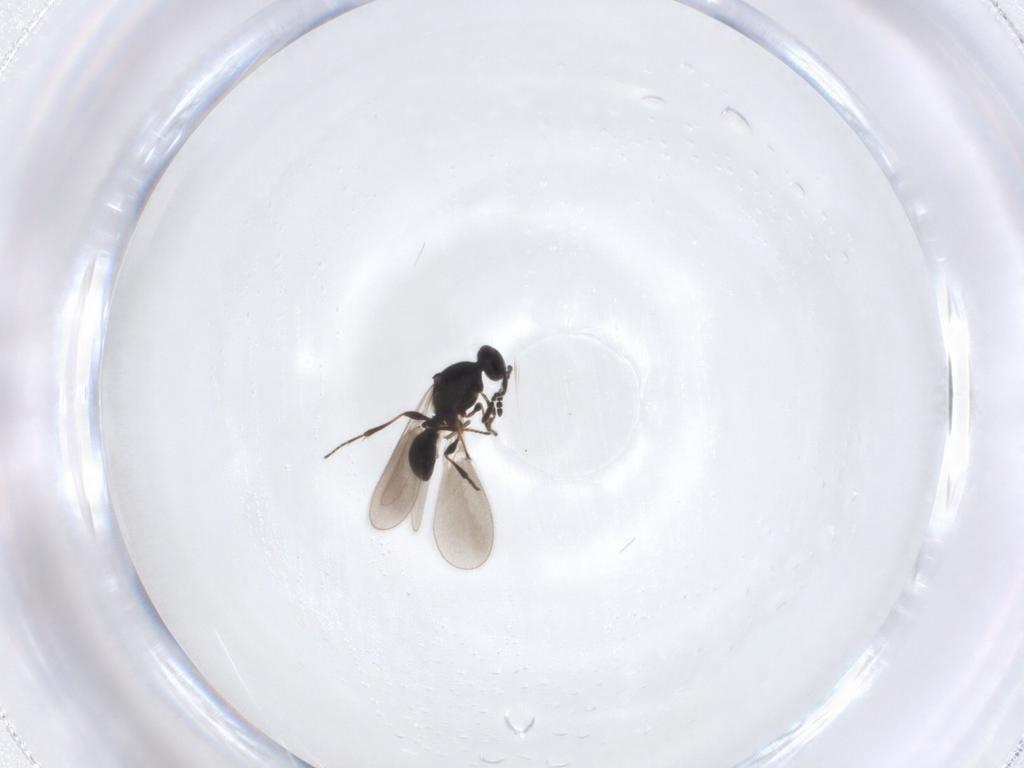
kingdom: Animalia
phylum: Arthropoda
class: Insecta
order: Hymenoptera
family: Platygastridae
